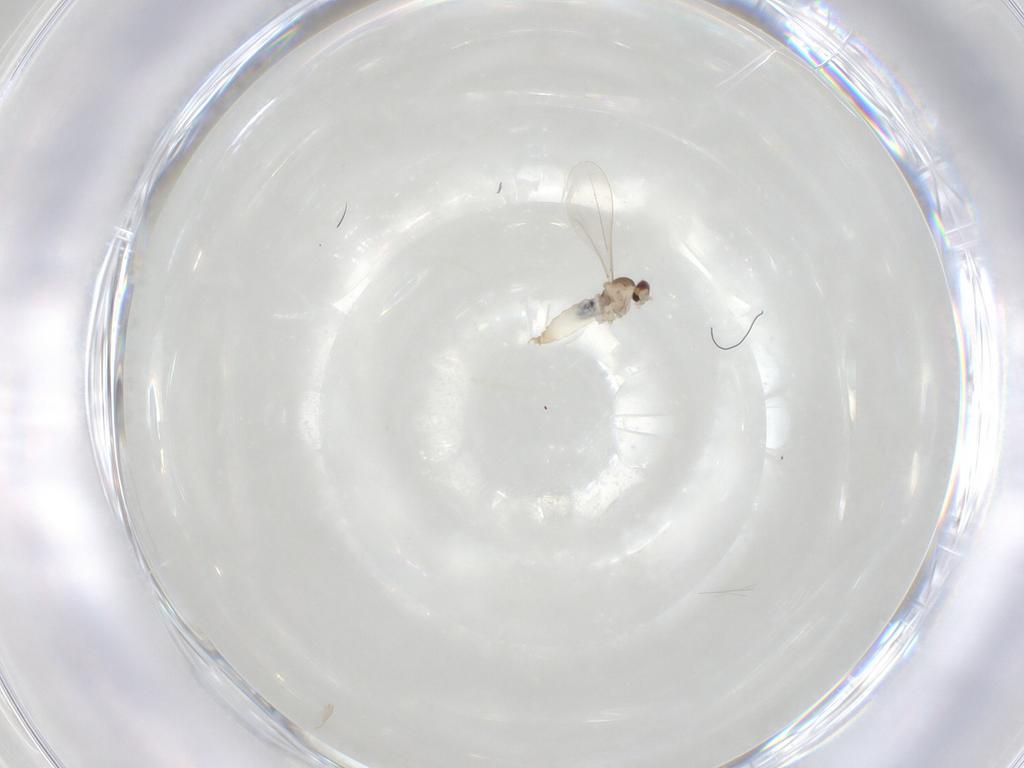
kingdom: Animalia
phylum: Arthropoda
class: Insecta
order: Diptera
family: Cecidomyiidae
